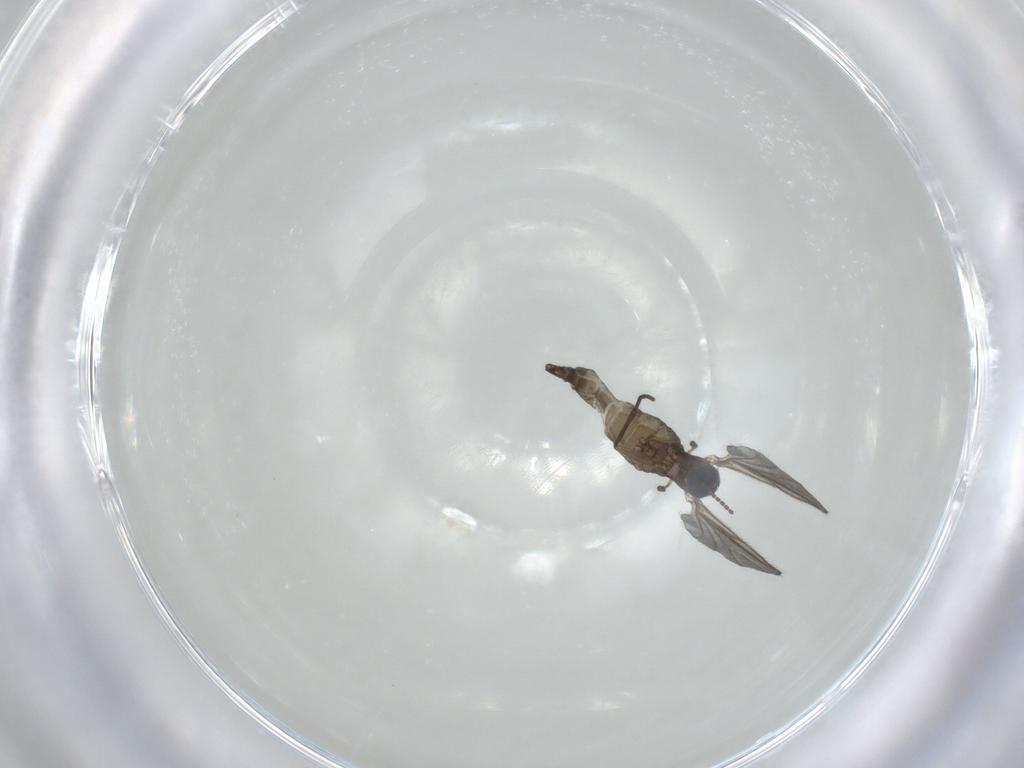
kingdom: Animalia
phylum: Arthropoda
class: Insecta
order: Diptera
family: Sciaridae
